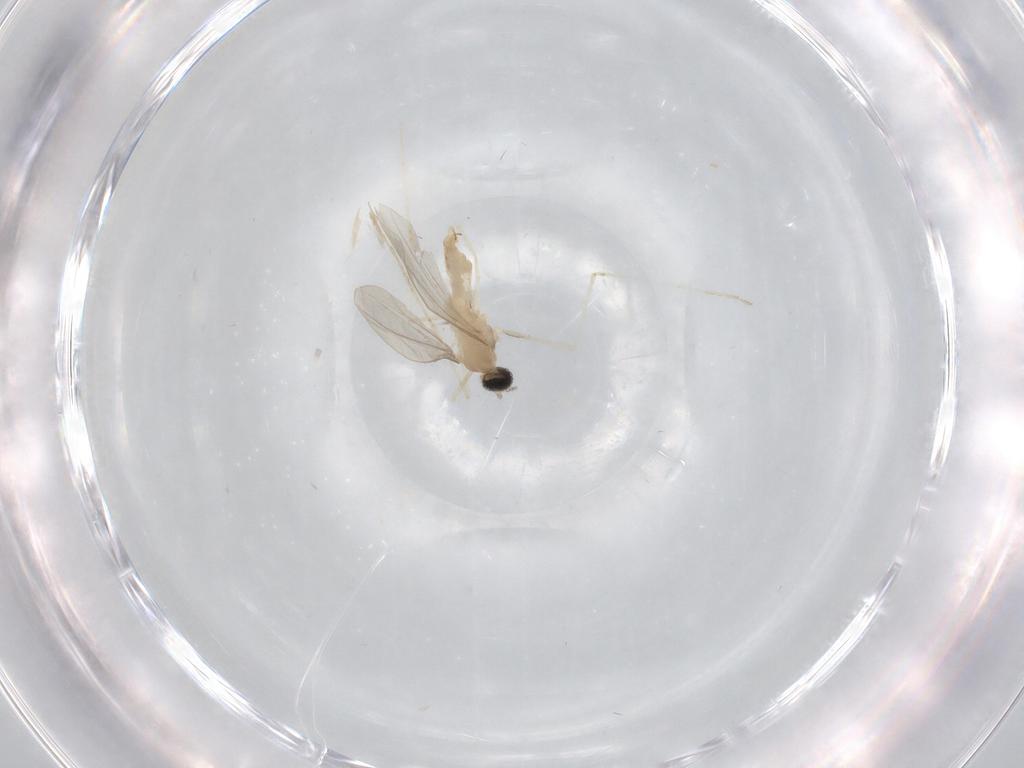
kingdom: Animalia
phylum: Arthropoda
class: Insecta
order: Diptera
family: Cecidomyiidae
